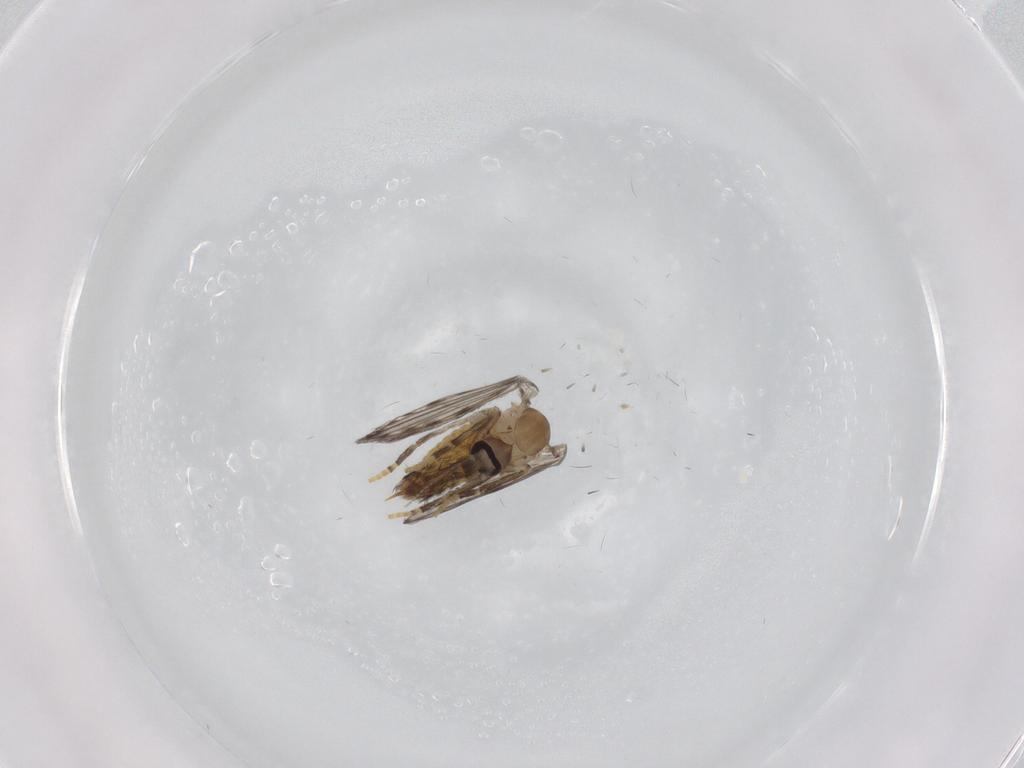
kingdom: Animalia
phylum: Arthropoda
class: Insecta
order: Diptera
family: Psychodidae
